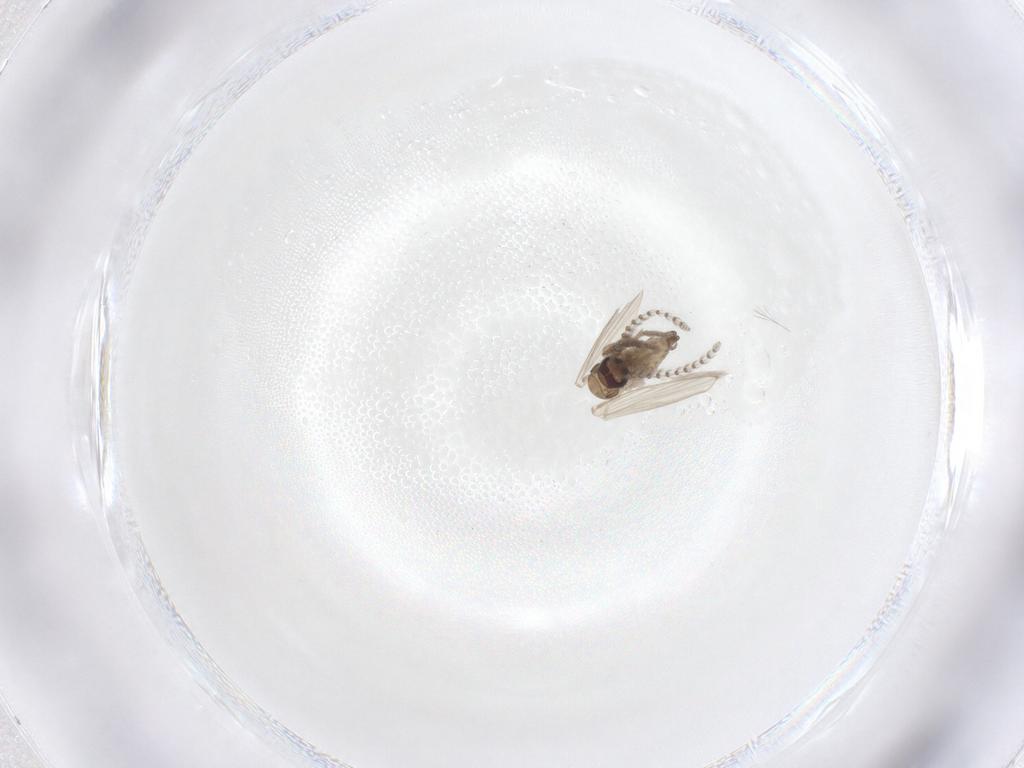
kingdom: Animalia
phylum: Arthropoda
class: Insecta
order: Diptera
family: Psychodidae
